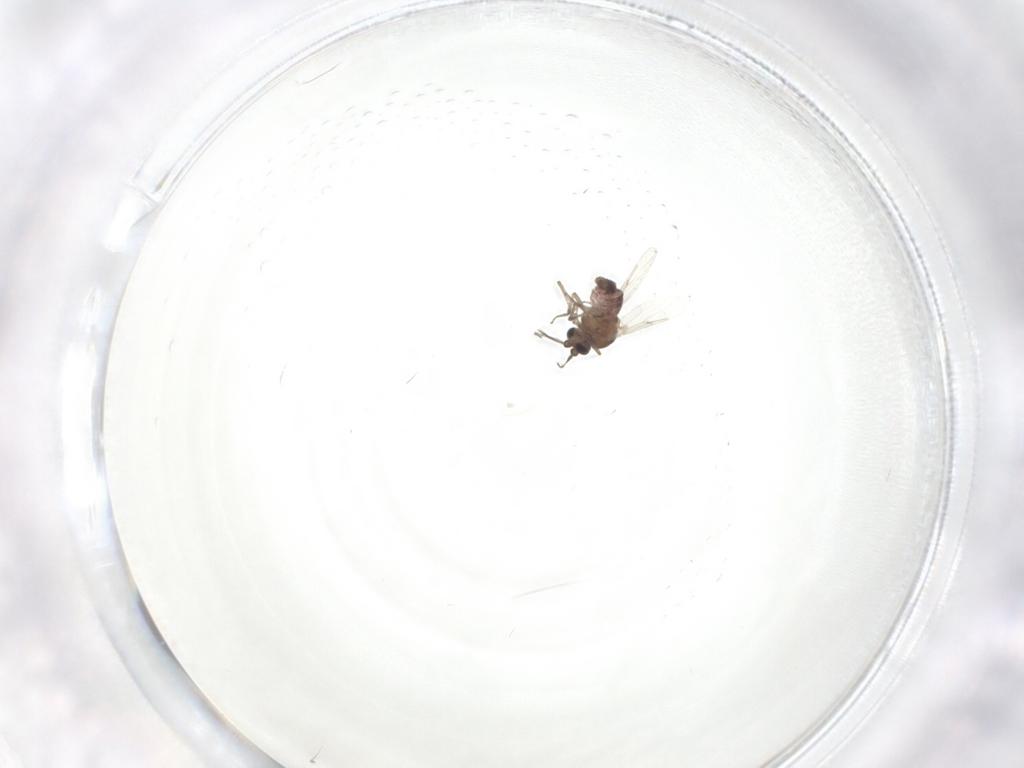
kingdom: Animalia
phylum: Arthropoda
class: Insecta
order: Diptera
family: Ceratopogonidae
